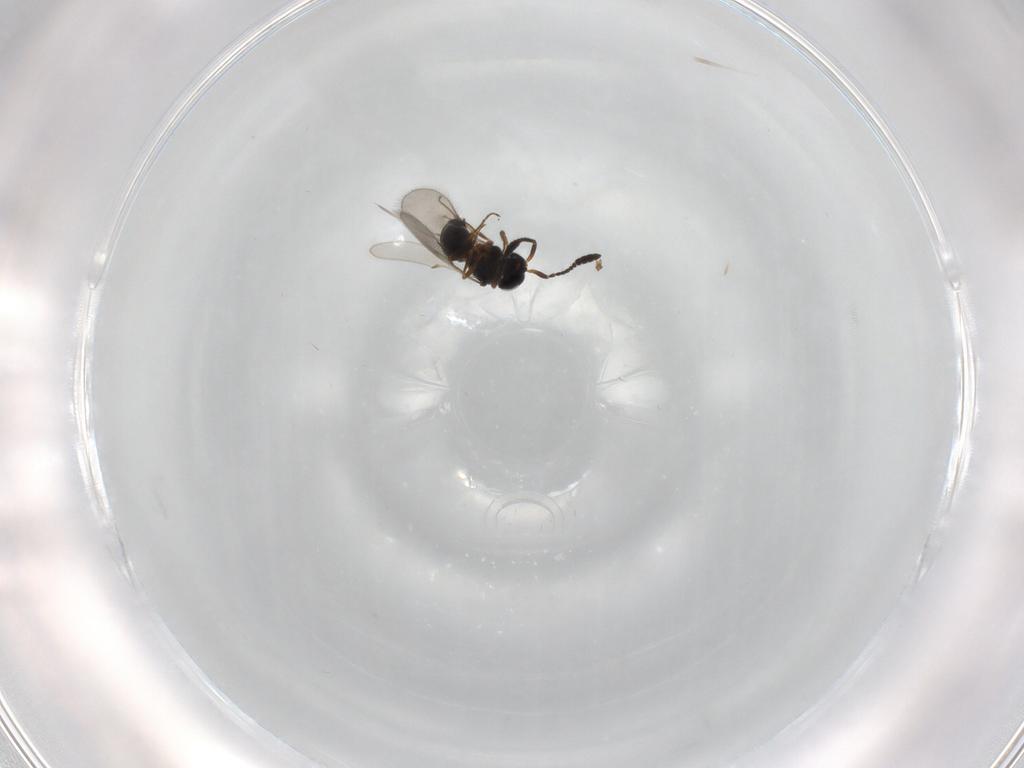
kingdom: Animalia
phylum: Arthropoda
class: Insecta
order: Hymenoptera
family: Scelionidae
